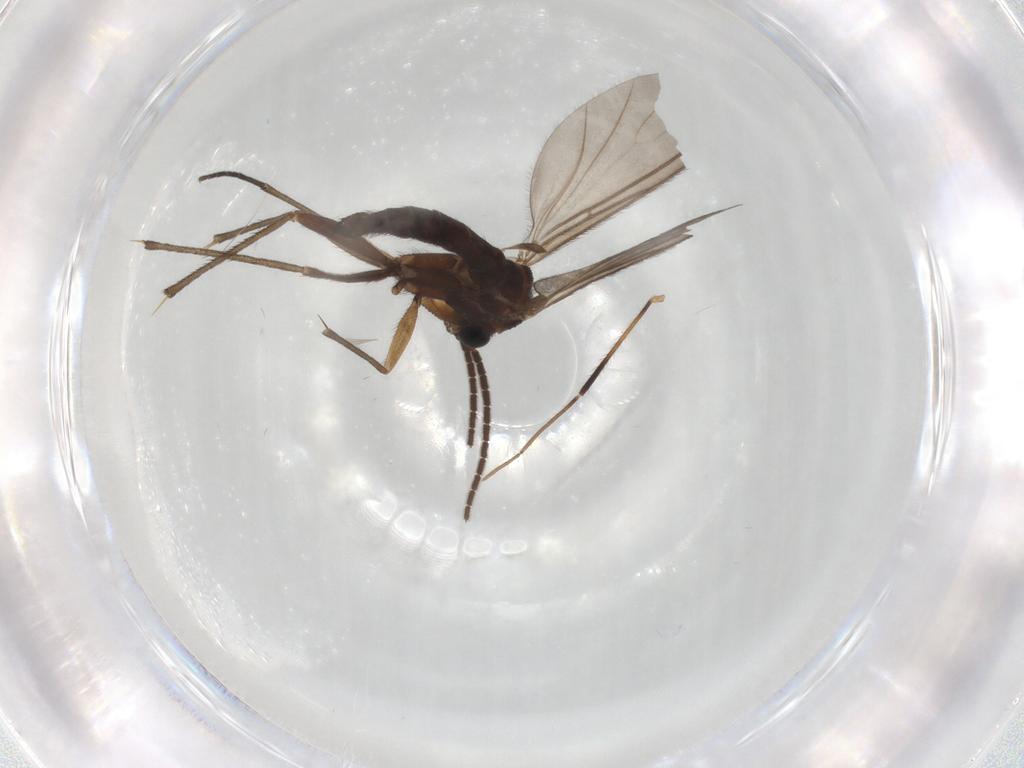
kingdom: Animalia
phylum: Arthropoda
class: Insecta
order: Diptera
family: Sciaridae
